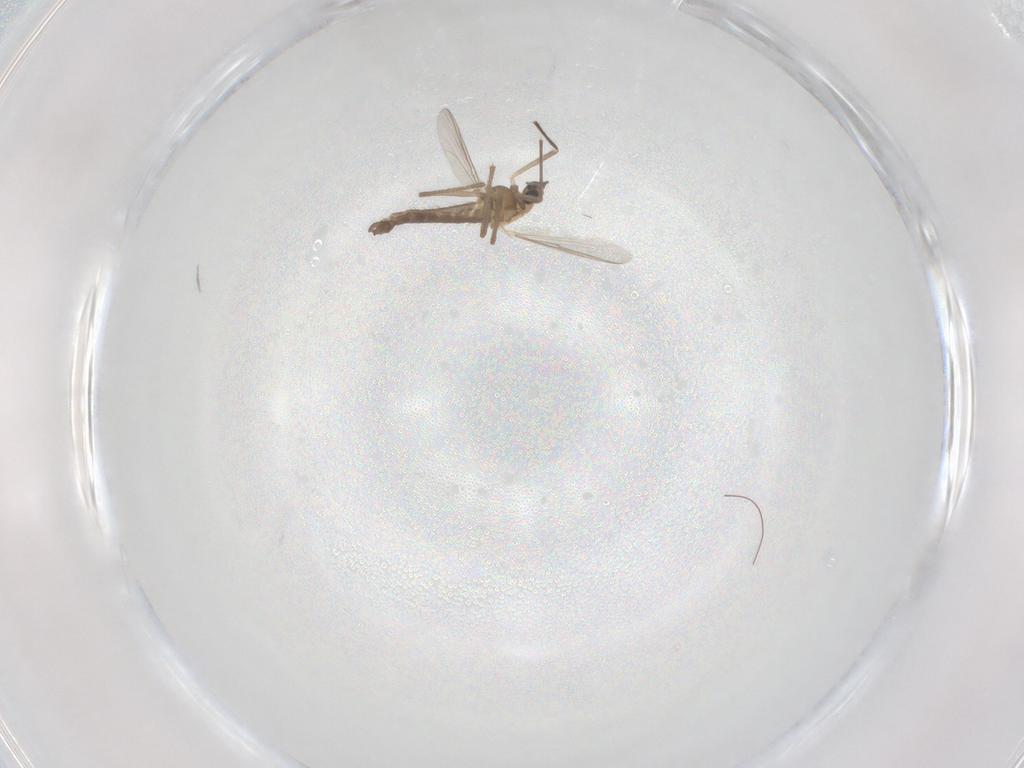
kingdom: Animalia
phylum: Arthropoda
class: Insecta
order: Diptera
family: Chironomidae
